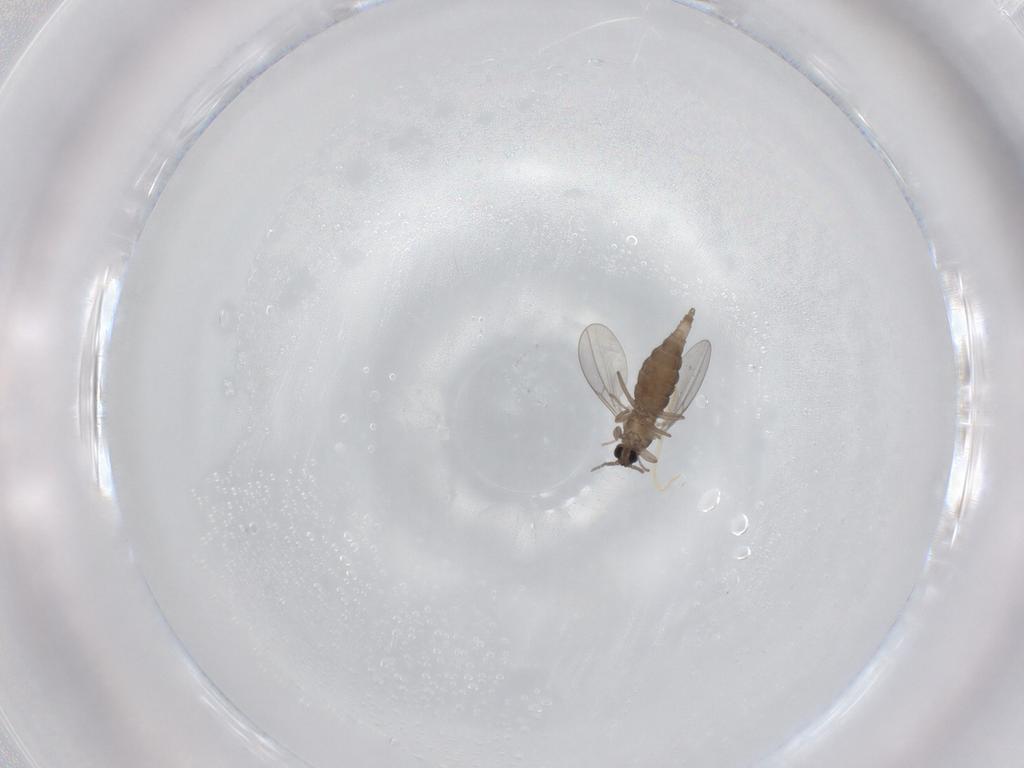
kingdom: Animalia
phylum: Arthropoda
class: Insecta
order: Diptera
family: Cecidomyiidae
